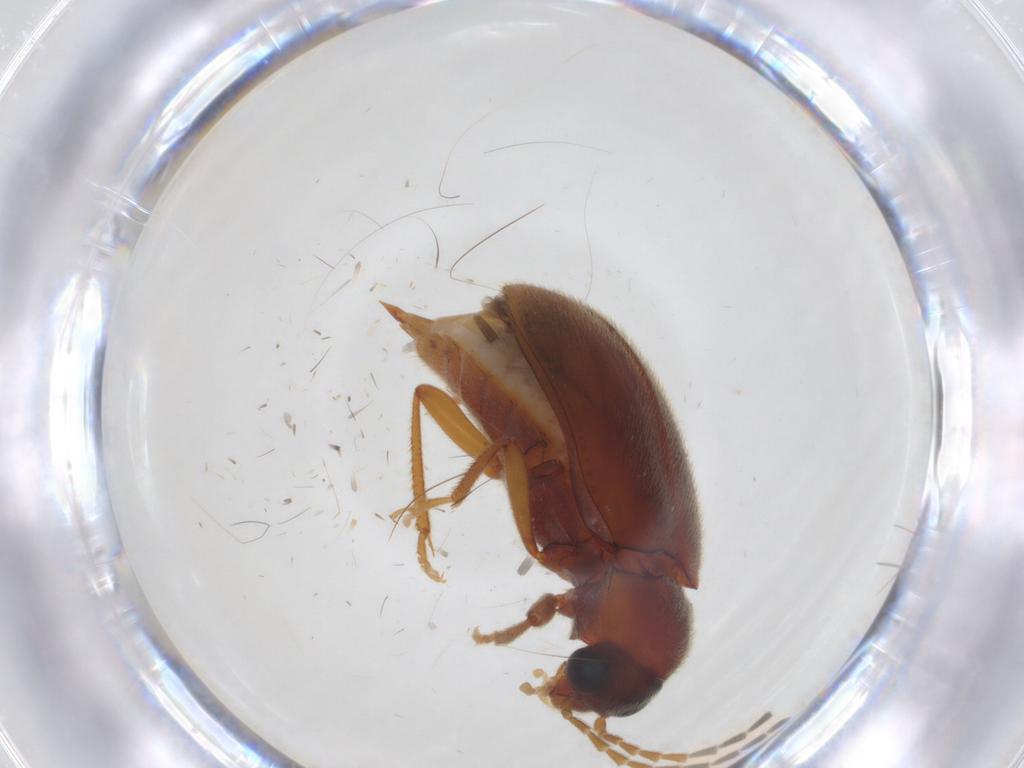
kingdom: Animalia
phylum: Arthropoda
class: Insecta
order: Coleoptera
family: Ptilodactylidae
